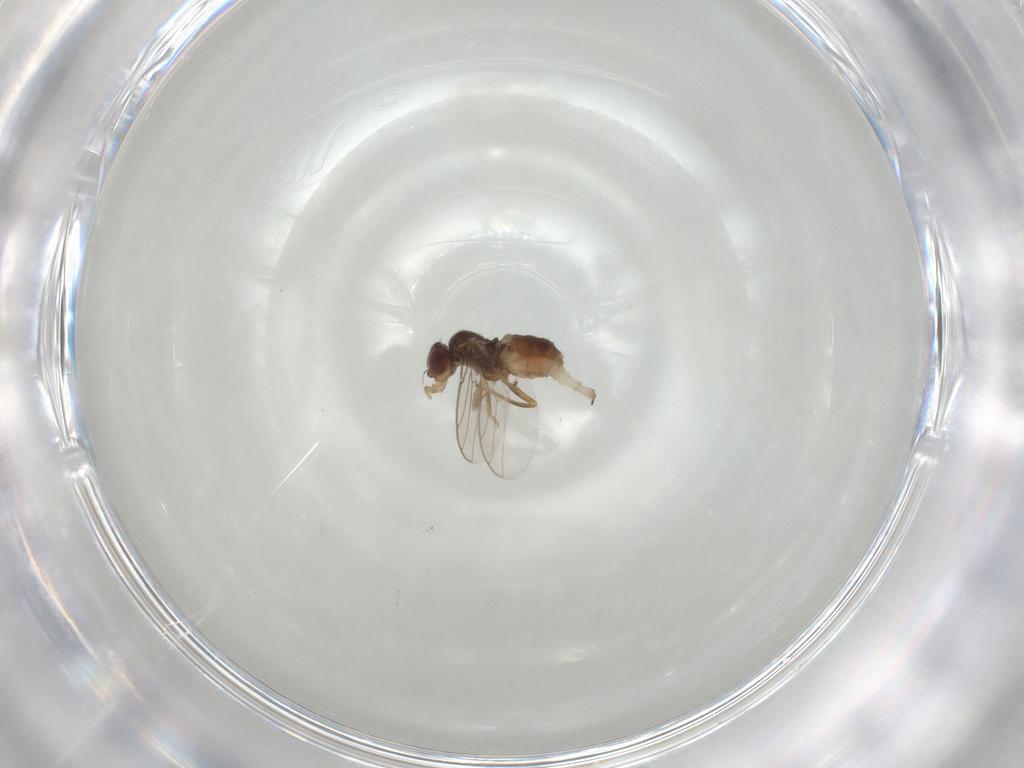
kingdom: Animalia
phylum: Arthropoda
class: Insecta
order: Diptera
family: Chloropidae
